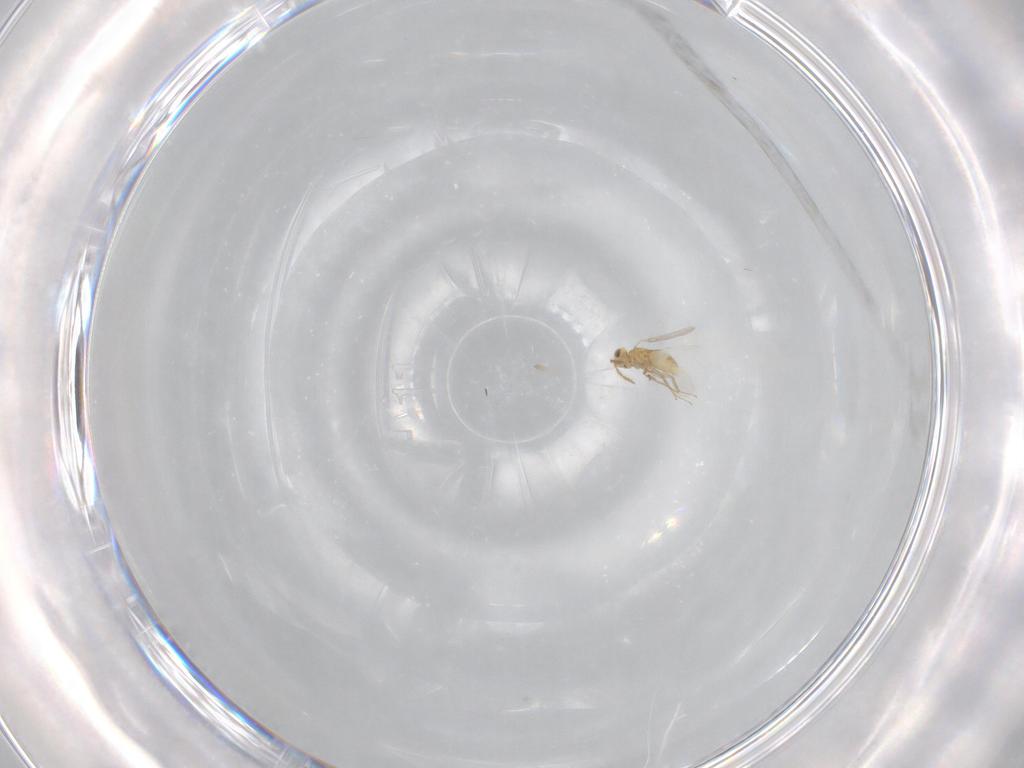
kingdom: Animalia
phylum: Arthropoda
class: Insecta
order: Hymenoptera
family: Aphelinidae
